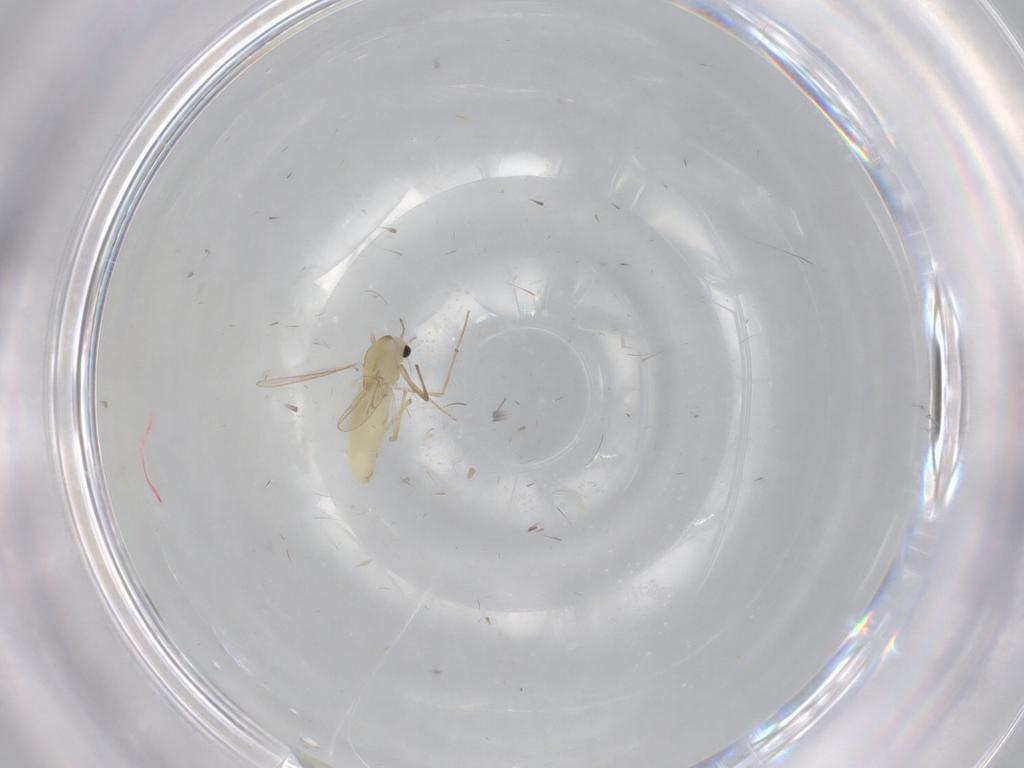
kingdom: Animalia
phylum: Arthropoda
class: Insecta
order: Diptera
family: Chironomidae
